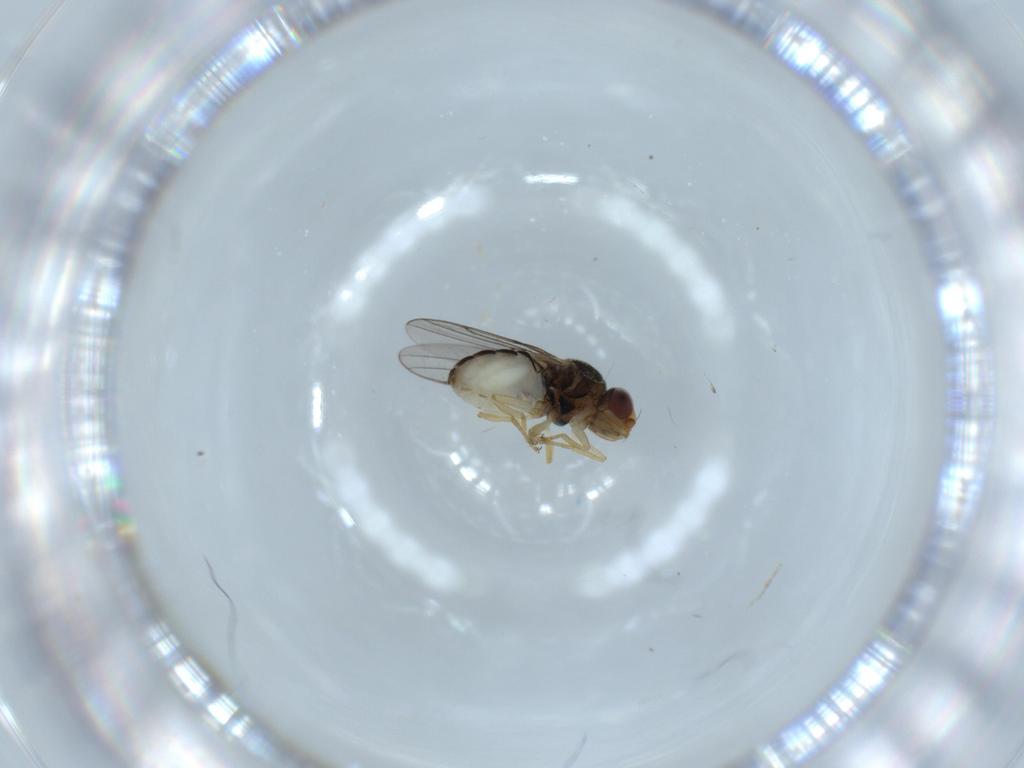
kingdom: Animalia
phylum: Arthropoda
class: Insecta
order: Diptera
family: Chloropidae
